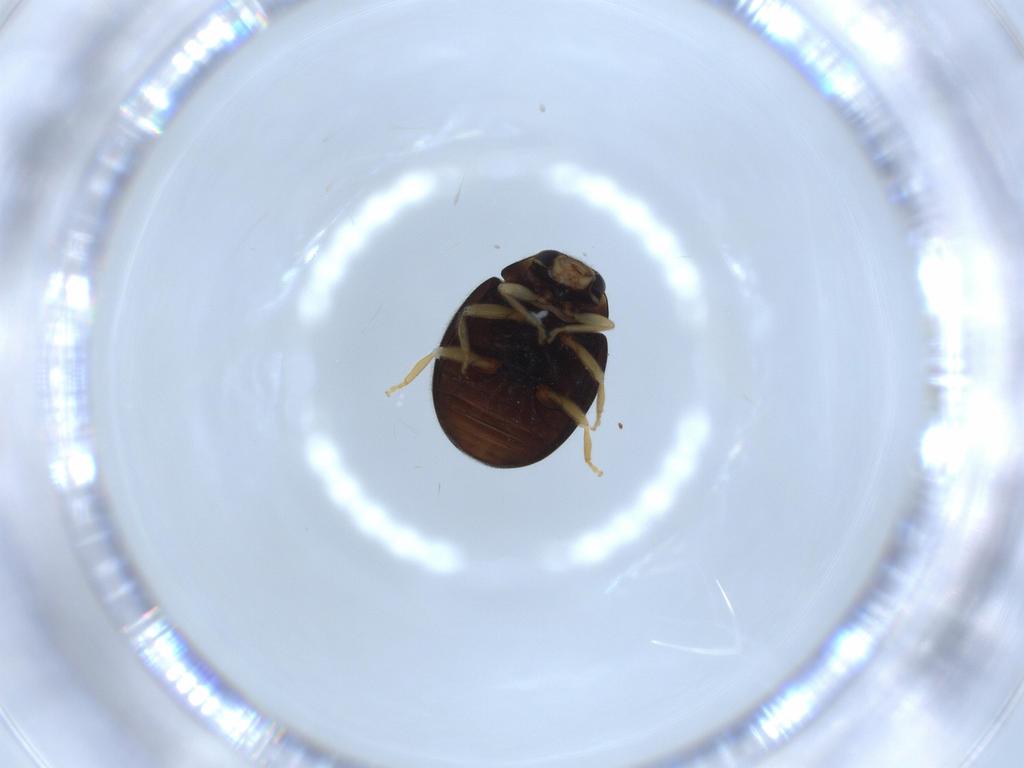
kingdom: Animalia
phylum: Arthropoda
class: Insecta
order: Coleoptera
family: Coccinellidae
